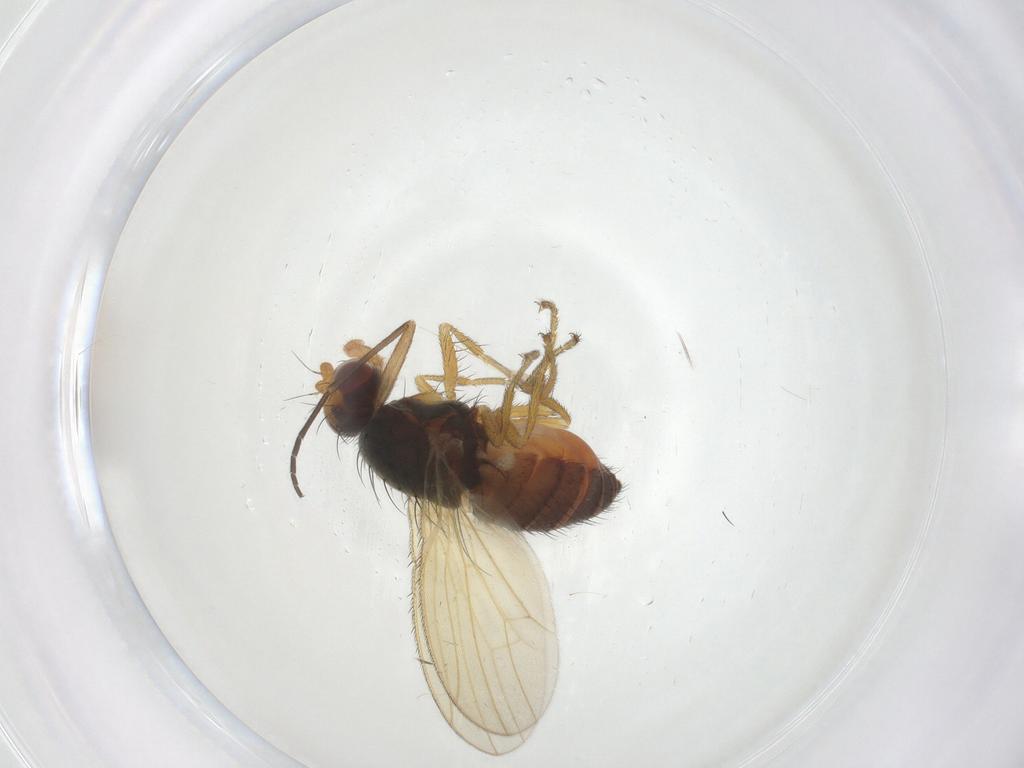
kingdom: Animalia
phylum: Arthropoda
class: Insecta
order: Diptera
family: Heleomyzidae
